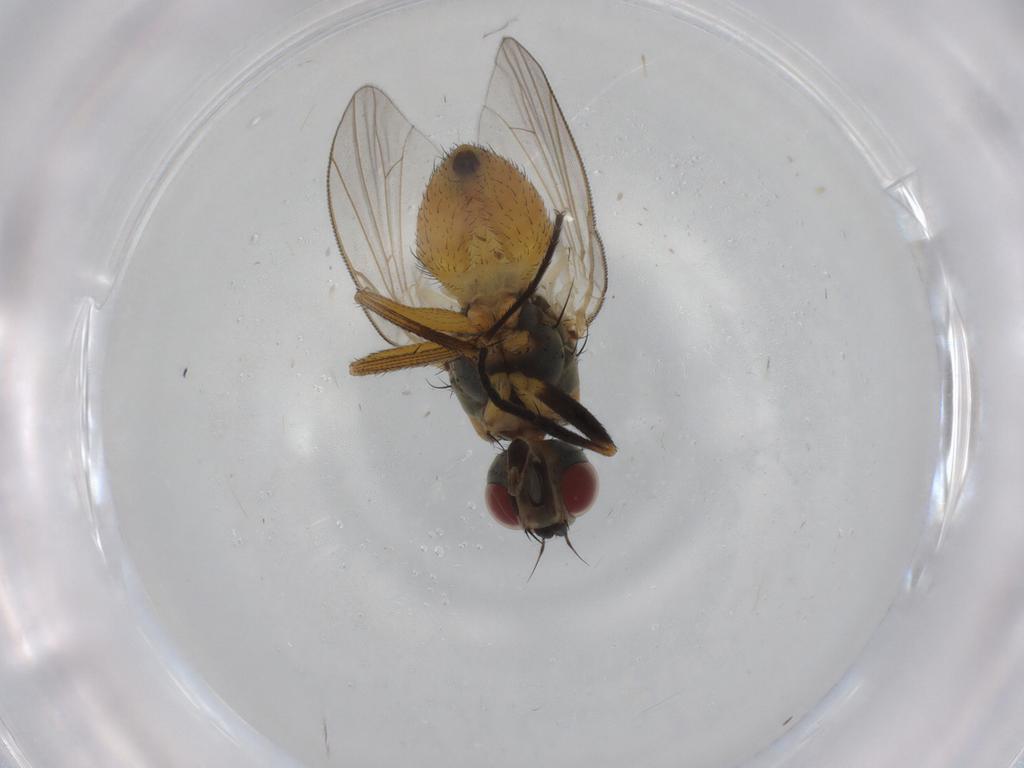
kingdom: Animalia
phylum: Arthropoda
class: Insecta
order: Diptera
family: Muscidae
